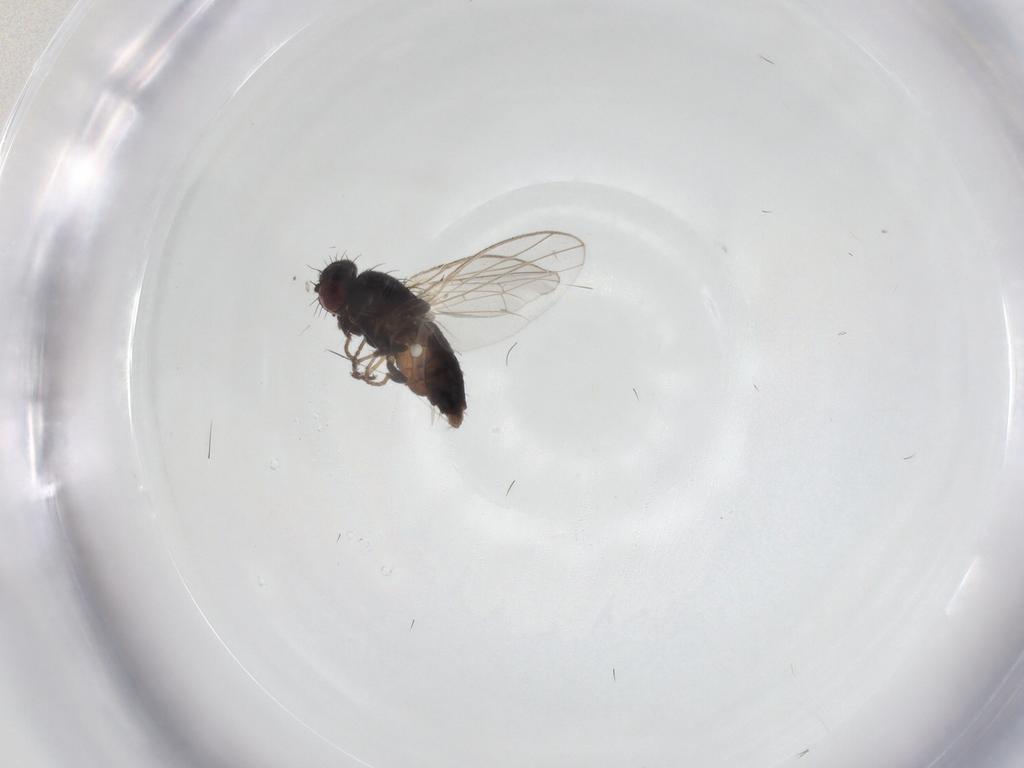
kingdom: Animalia
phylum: Arthropoda
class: Insecta
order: Diptera
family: Carnidae
